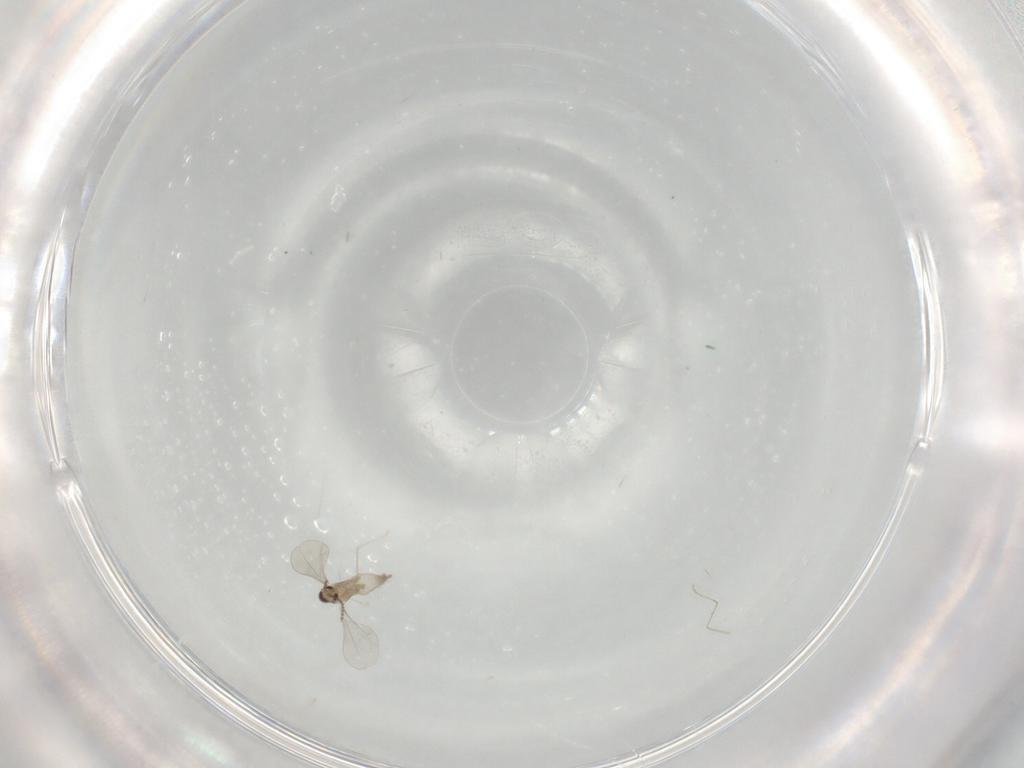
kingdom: Animalia
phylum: Arthropoda
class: Insecta
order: Diptera
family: Cecidomyiidae
